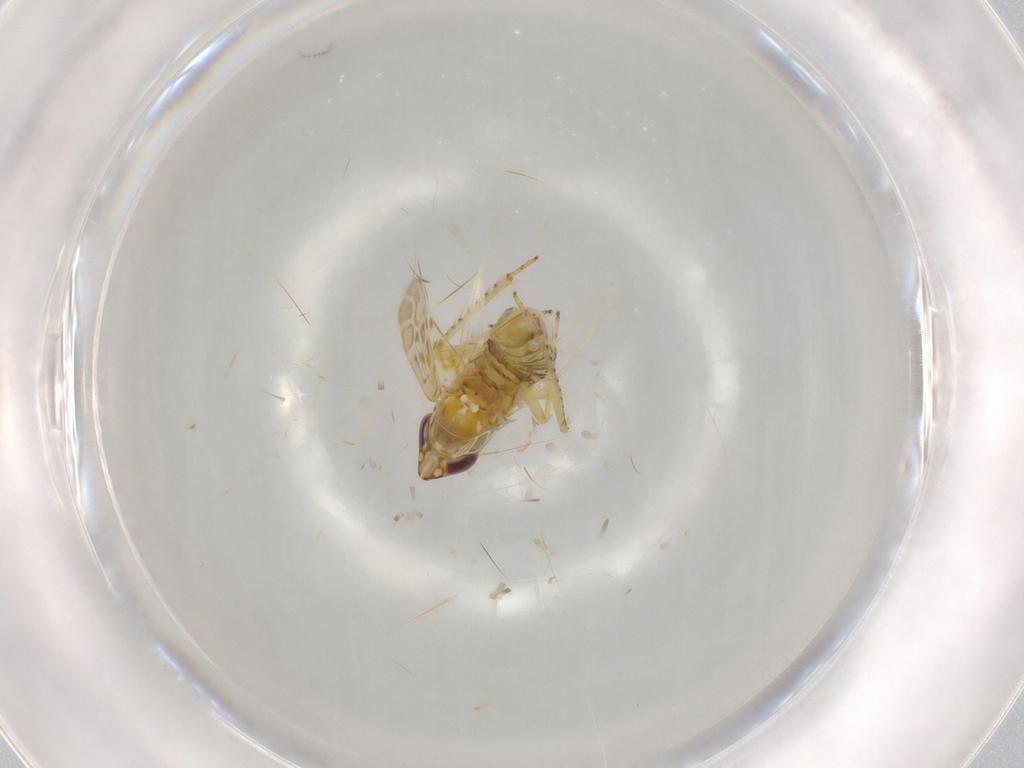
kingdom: Animalia
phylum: Arthropoda
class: Insecta
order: Hemiptera
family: Cicadellidae
